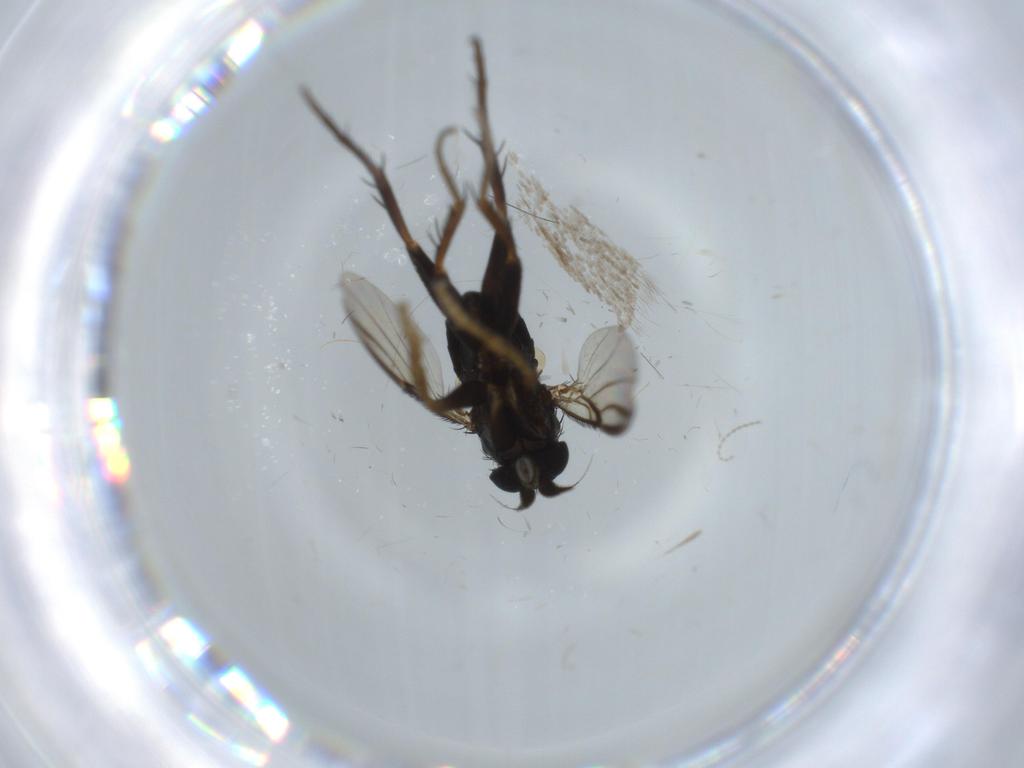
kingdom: Animalia
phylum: Arthropoda
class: Insecta
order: Diptera
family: Phoridae
